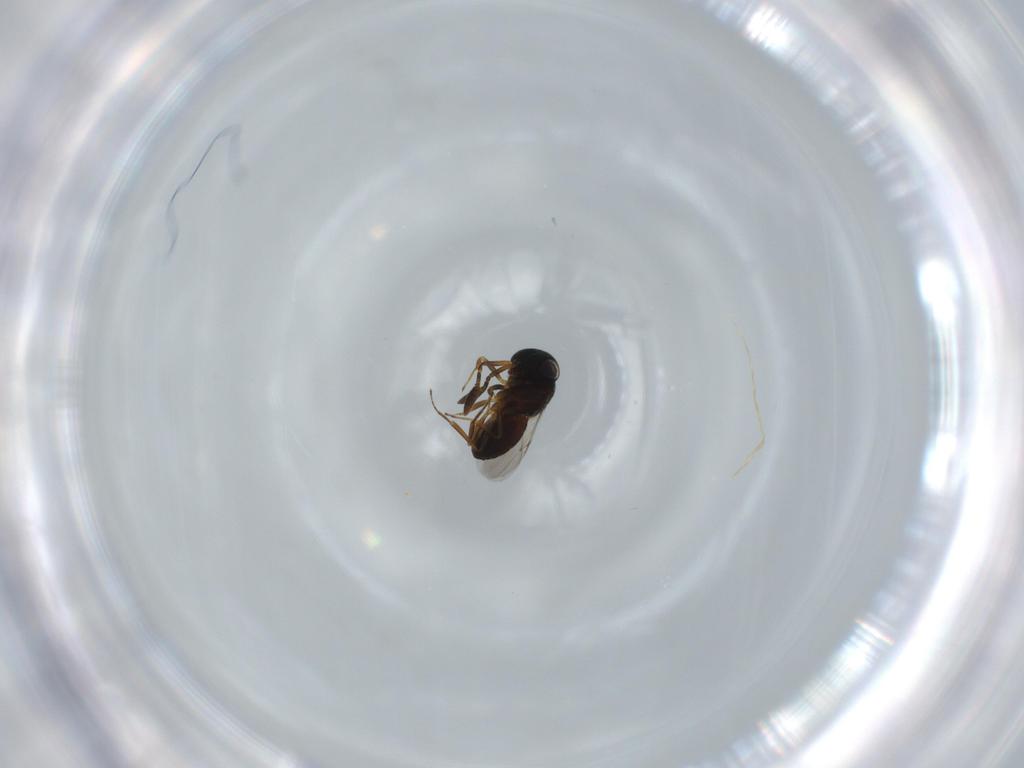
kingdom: Animalia
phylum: Arthropoda
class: Insecta
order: Hymenoptera
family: Scelionidae
